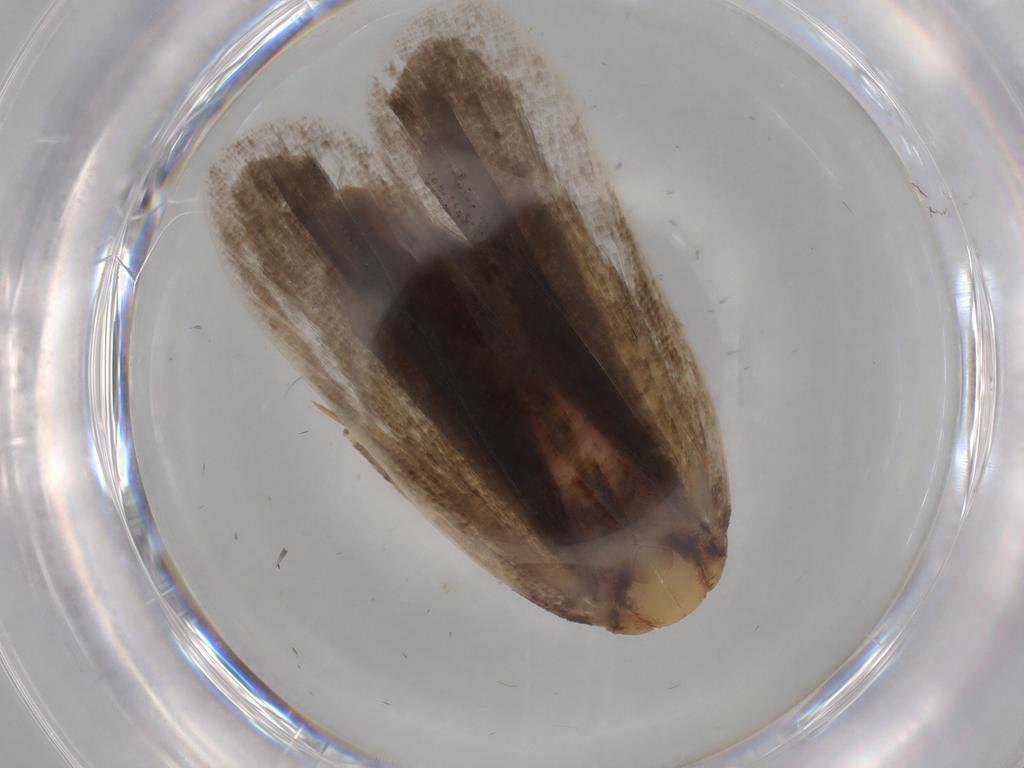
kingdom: Animalia
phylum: Arthropoda
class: Insecta
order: Lepidoptera
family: Autostichidae
